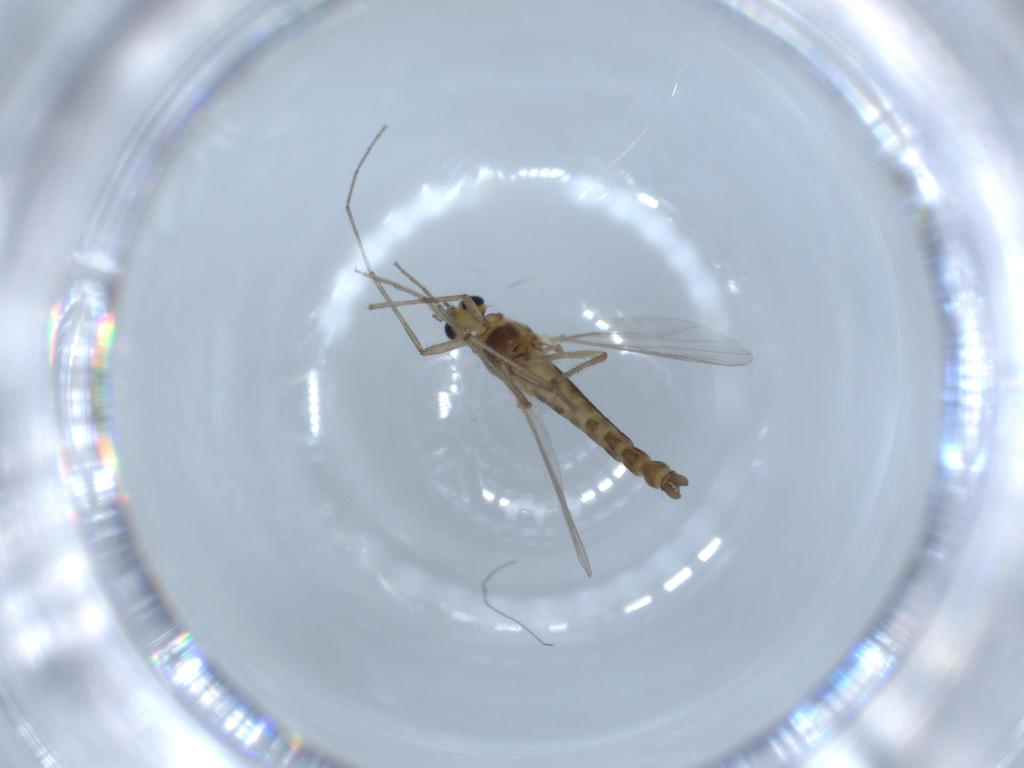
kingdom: Animalia
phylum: Arthropoda
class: Insecta
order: Diptera
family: Chironomidae
